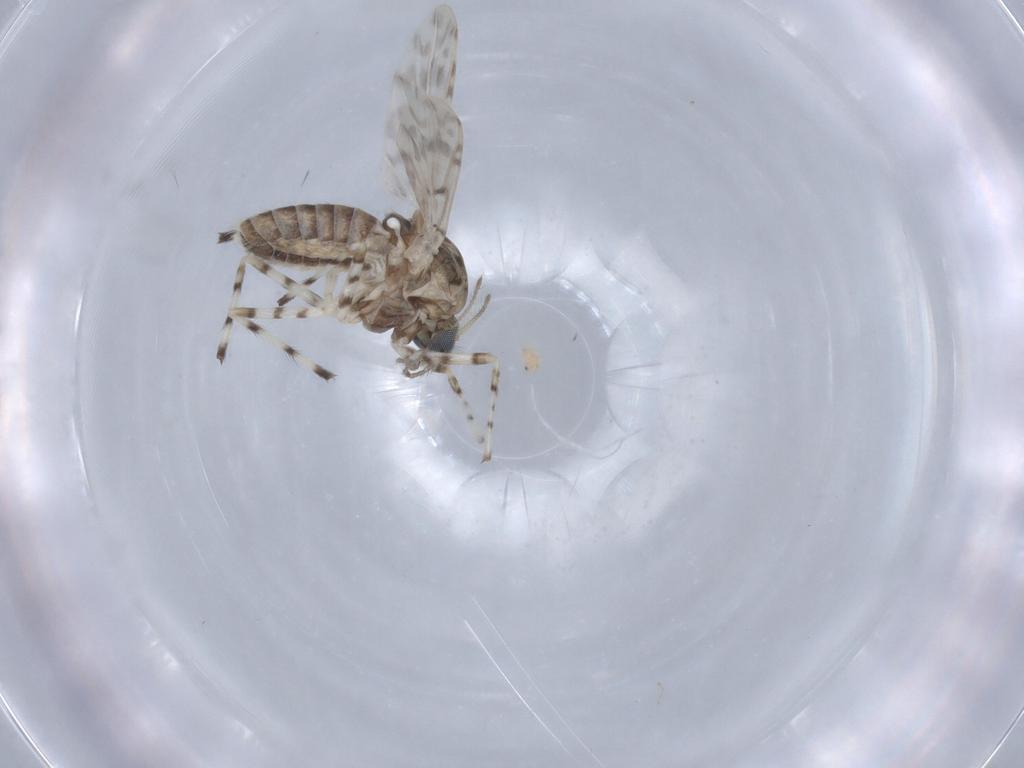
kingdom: Animalia
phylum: Arthropoda
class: Insecta
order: Diptera
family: Chironomidae
